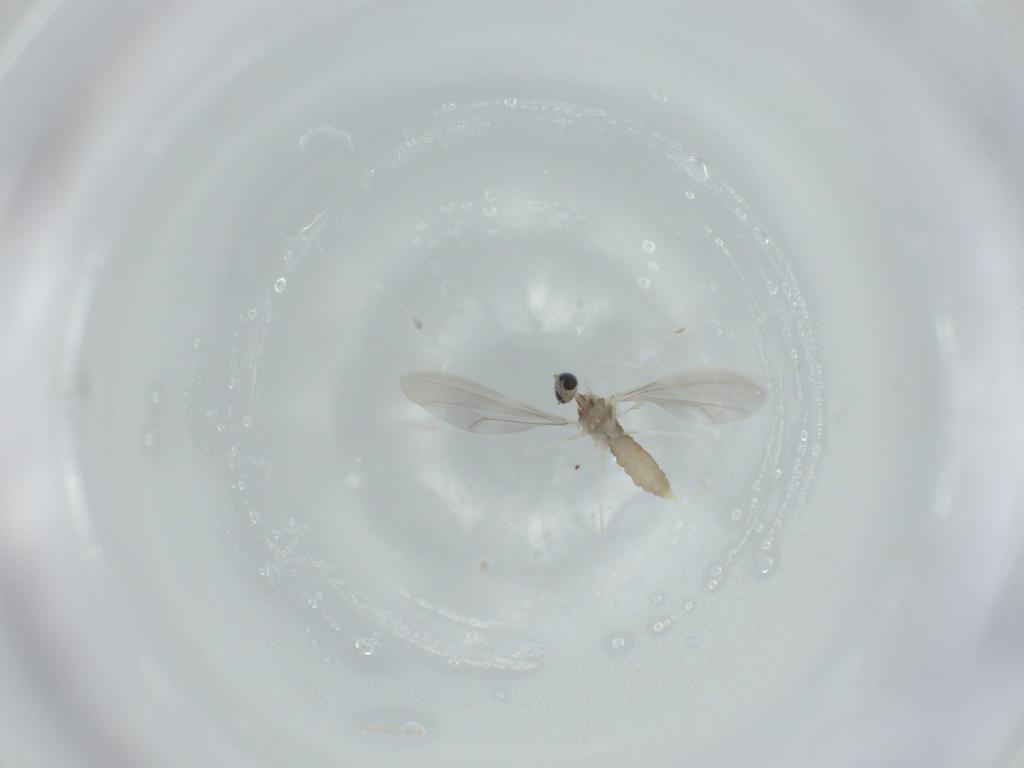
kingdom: Animalia
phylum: Arthropoda
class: Insecta
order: Diptera
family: Cecidomyiidae
